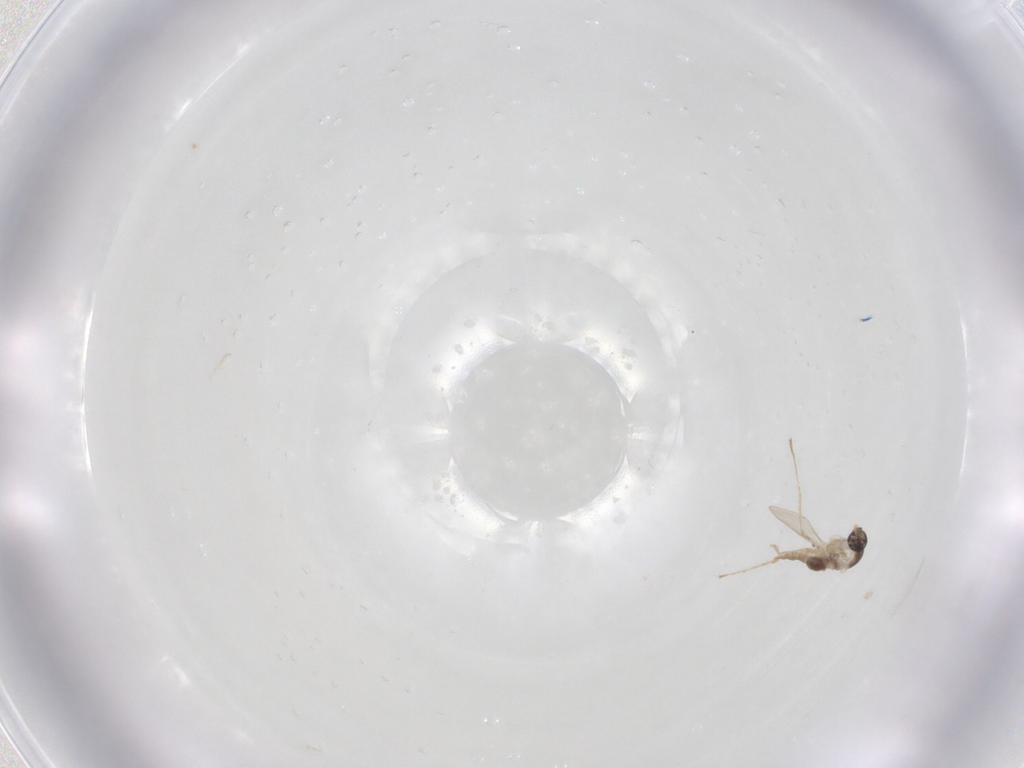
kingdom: Animalia
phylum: Arthropoda
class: Insecta
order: Diptera
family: Cecidomyiidae
